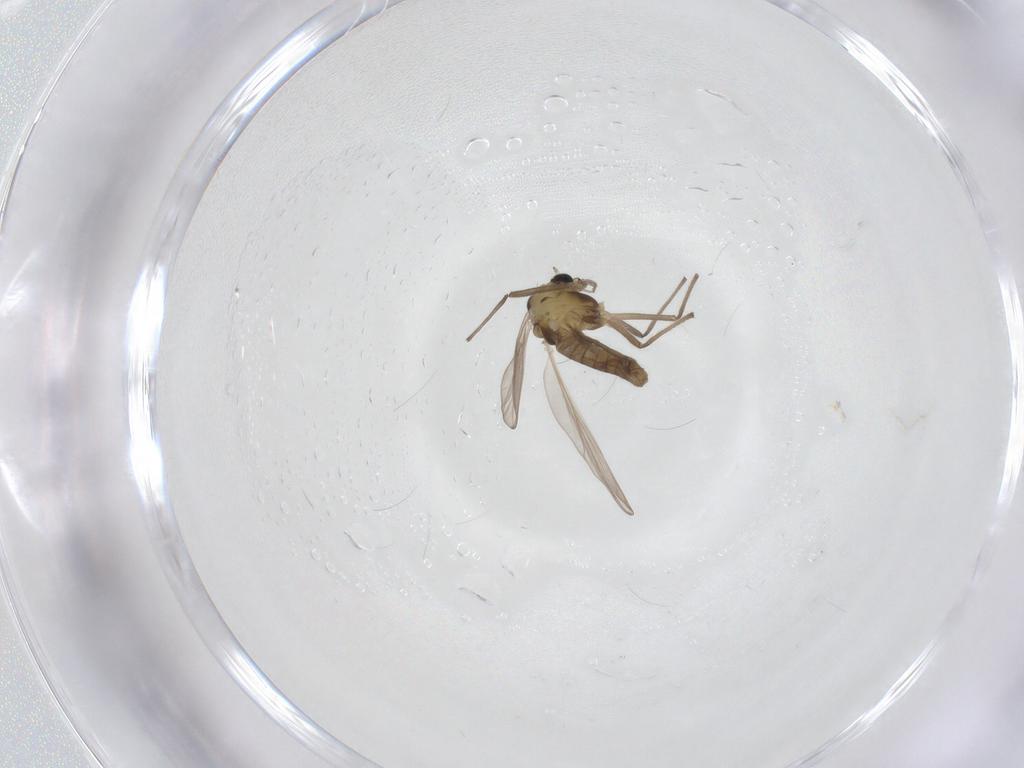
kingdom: Animalia
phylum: Arthropoda
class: Insecta
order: Diptera
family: Chironomidae
